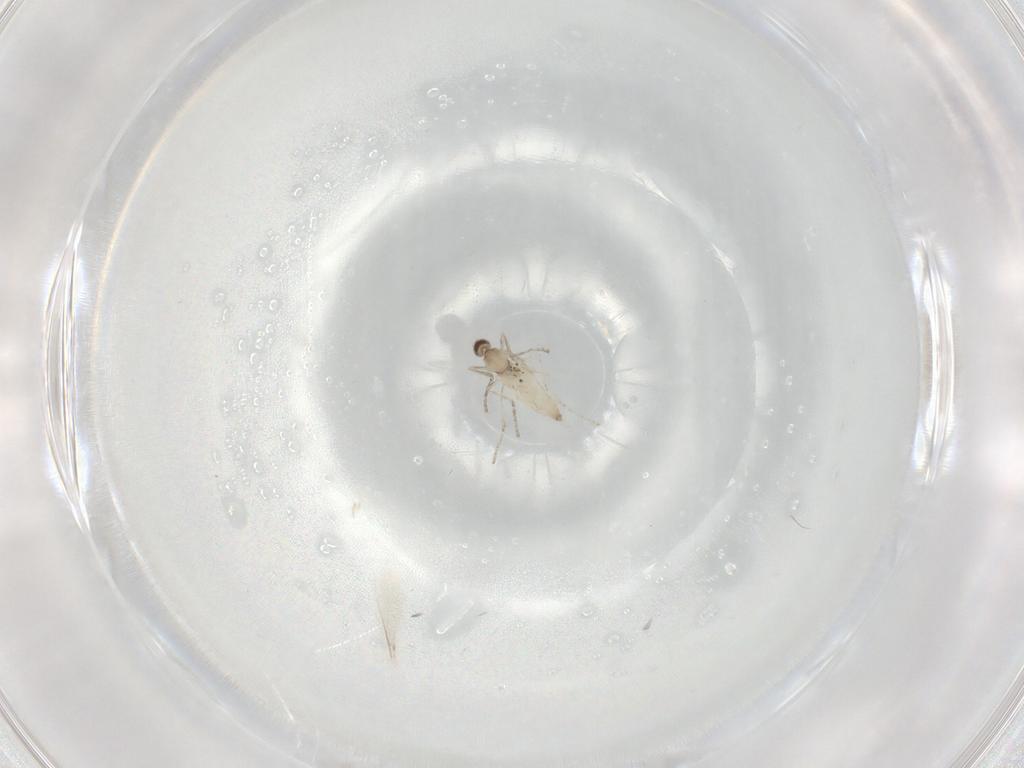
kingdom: Animalia
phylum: Arthropoda
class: Insecta
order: Diptera
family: Cecidomyiidae
